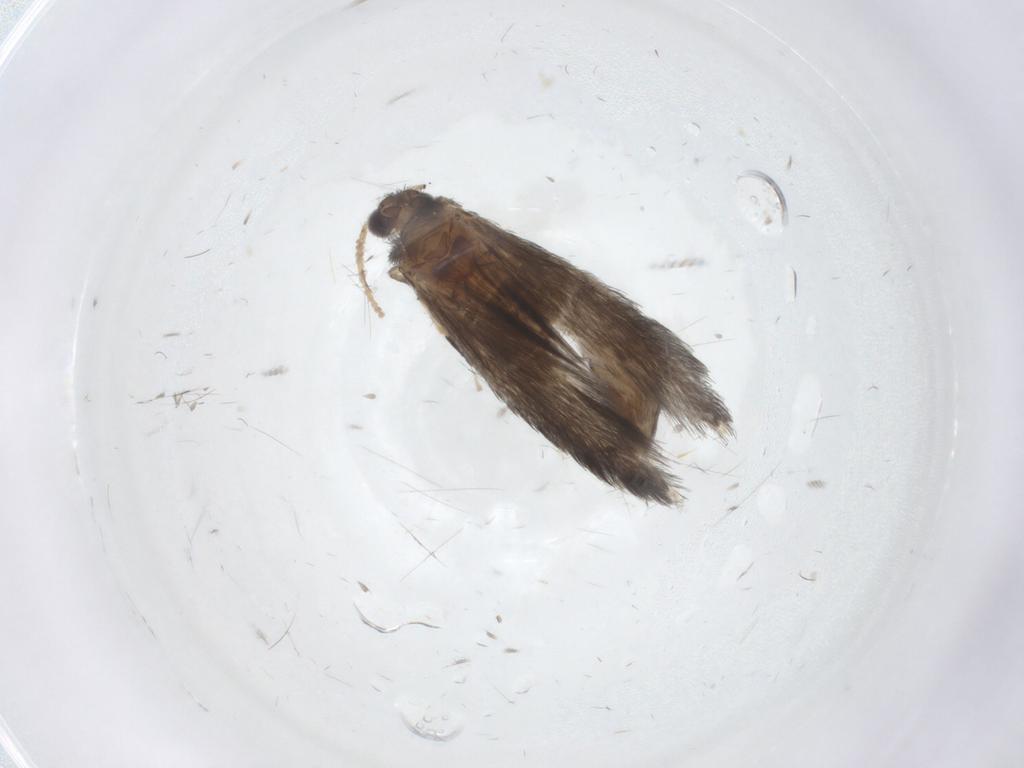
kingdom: Animalia
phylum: Arthropoda
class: Insecta
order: Trichoptera
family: Hydroptilidae
